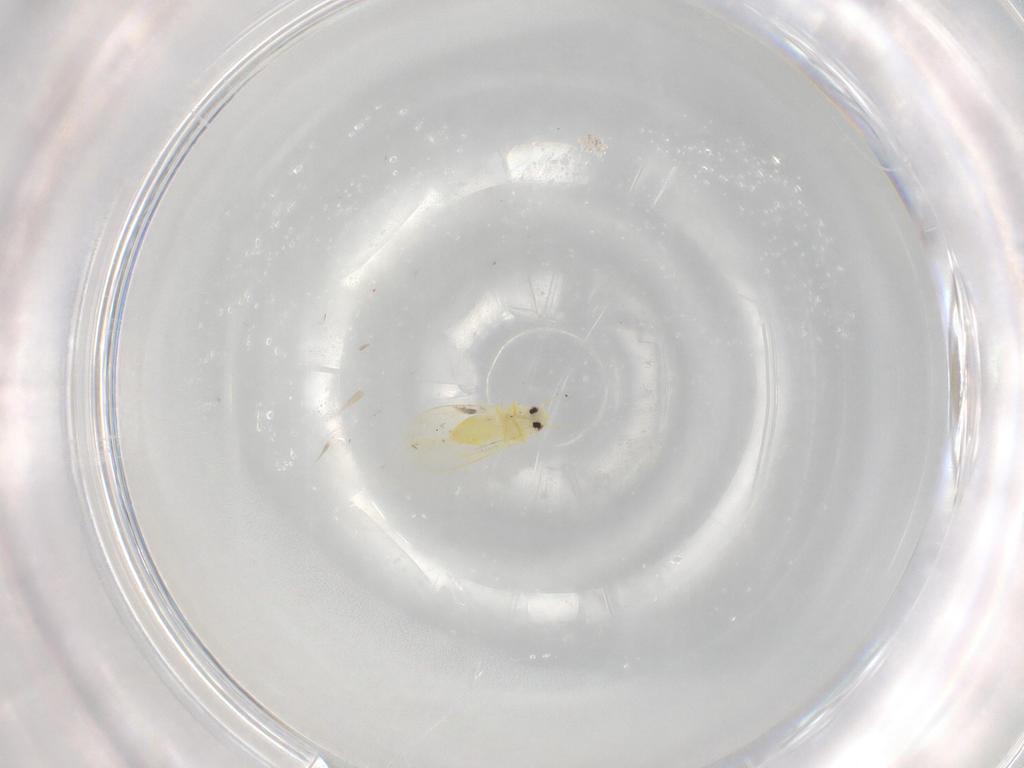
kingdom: Animalia
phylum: Arthropoda
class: Insecta
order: Hemiptera
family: Aleyrodidae
